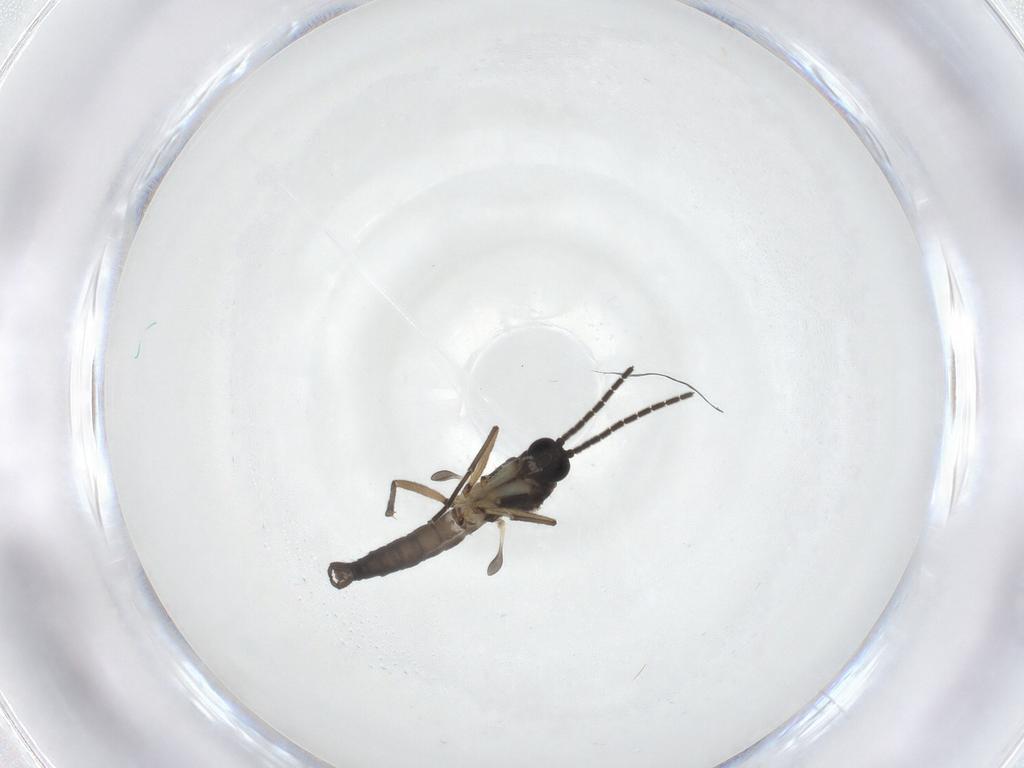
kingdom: Animalia
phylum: Arthropoda
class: Insecta
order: Diptera
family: Sciaridae
